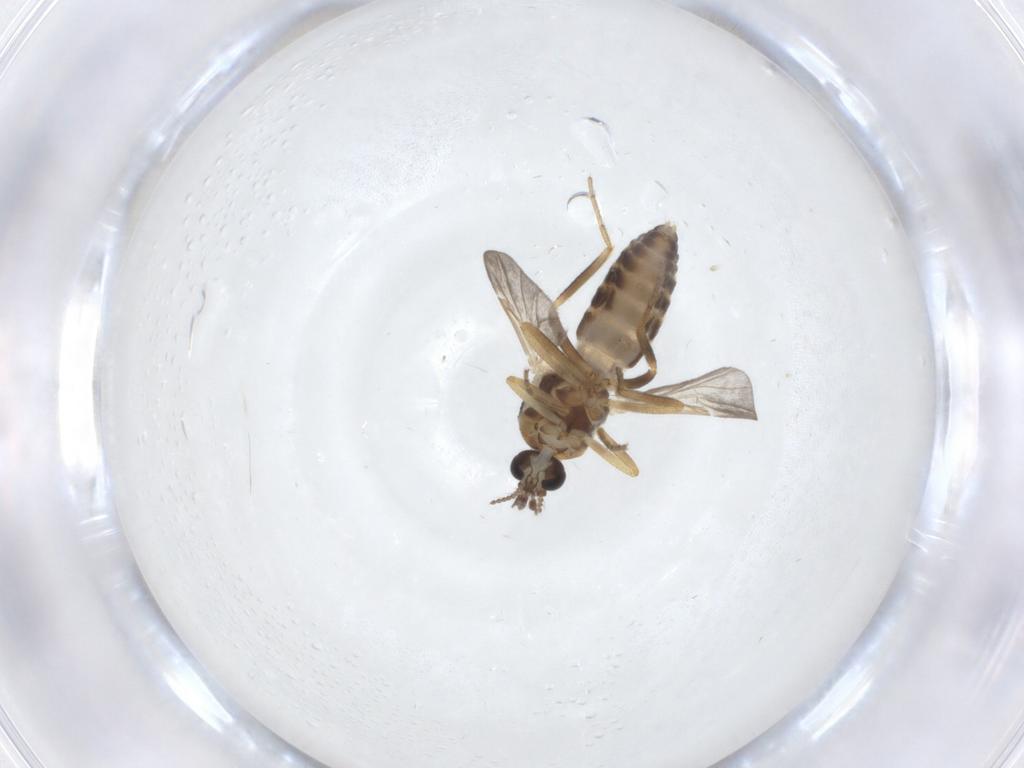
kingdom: Animalia
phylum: Arthropoda
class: Insecta
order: Diptera
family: Ceratopogonidae
